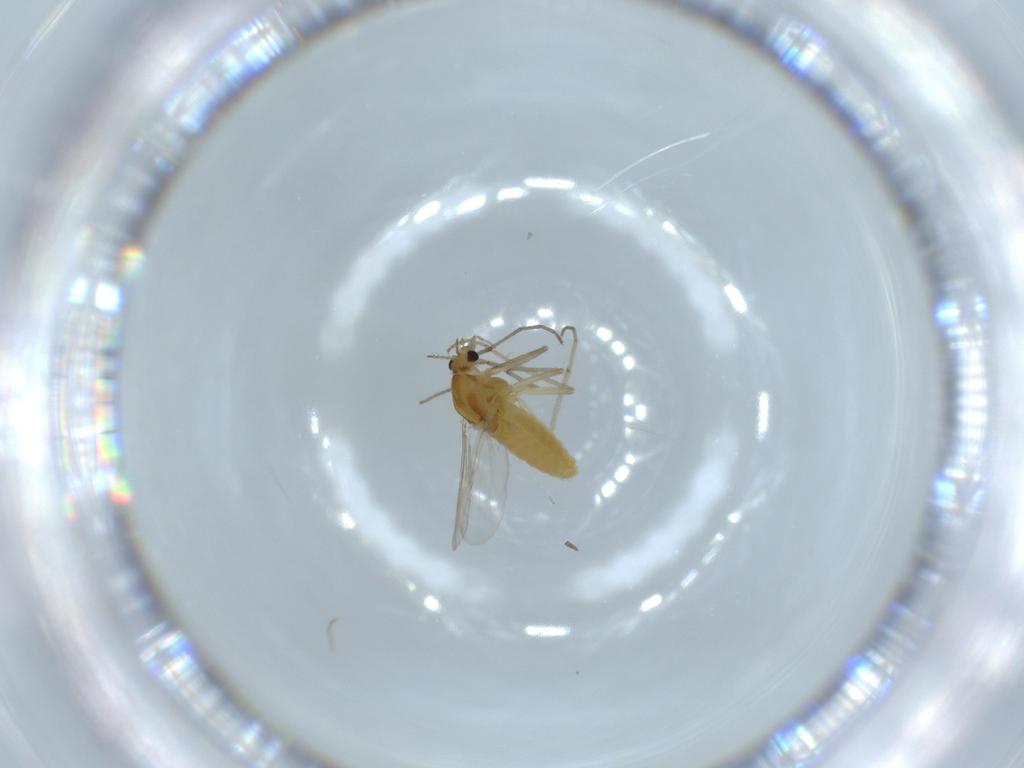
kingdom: Animalia
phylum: Arthropoda
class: Insecta
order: Diptera
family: Chironomidae
